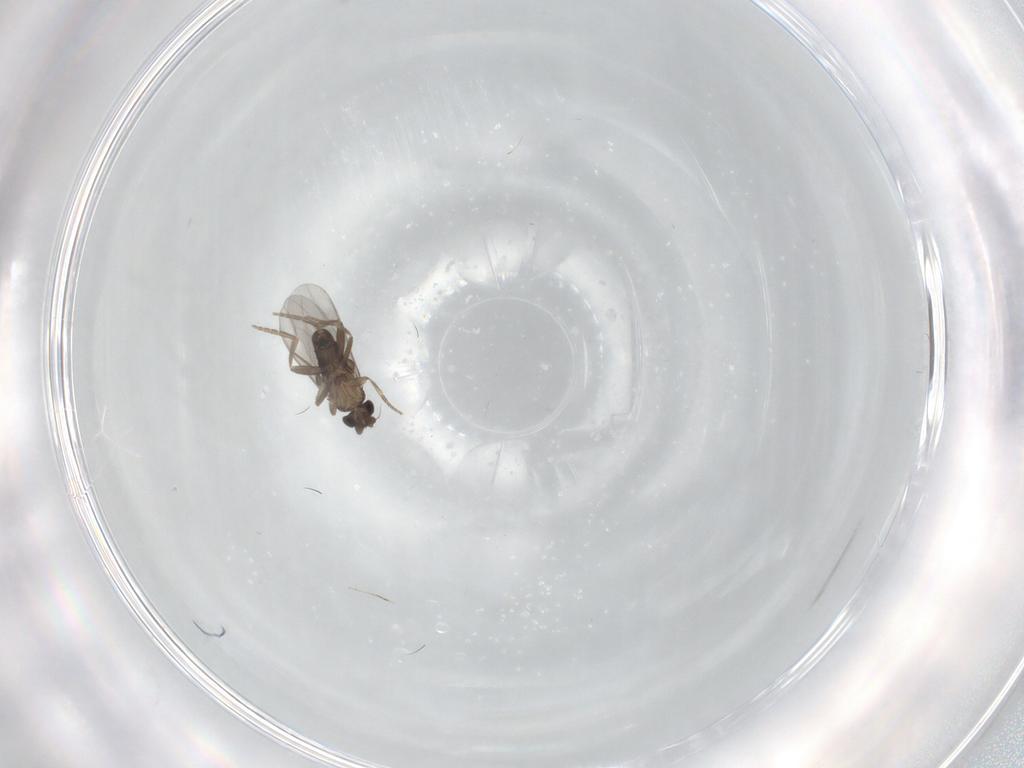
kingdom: Animalia
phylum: Arthropoda
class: Insecta
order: Diptera
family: Cecidomyiidae
